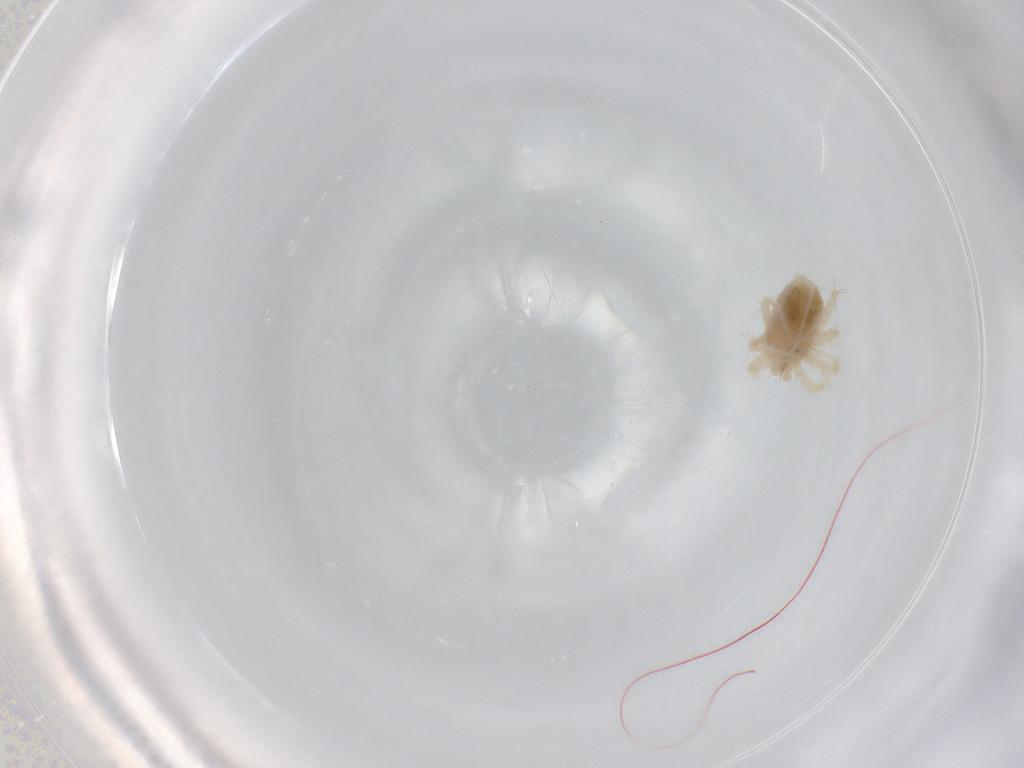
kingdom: Animalia
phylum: Arthropoda
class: Arachnida
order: Trombidiformes
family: Anystidae
